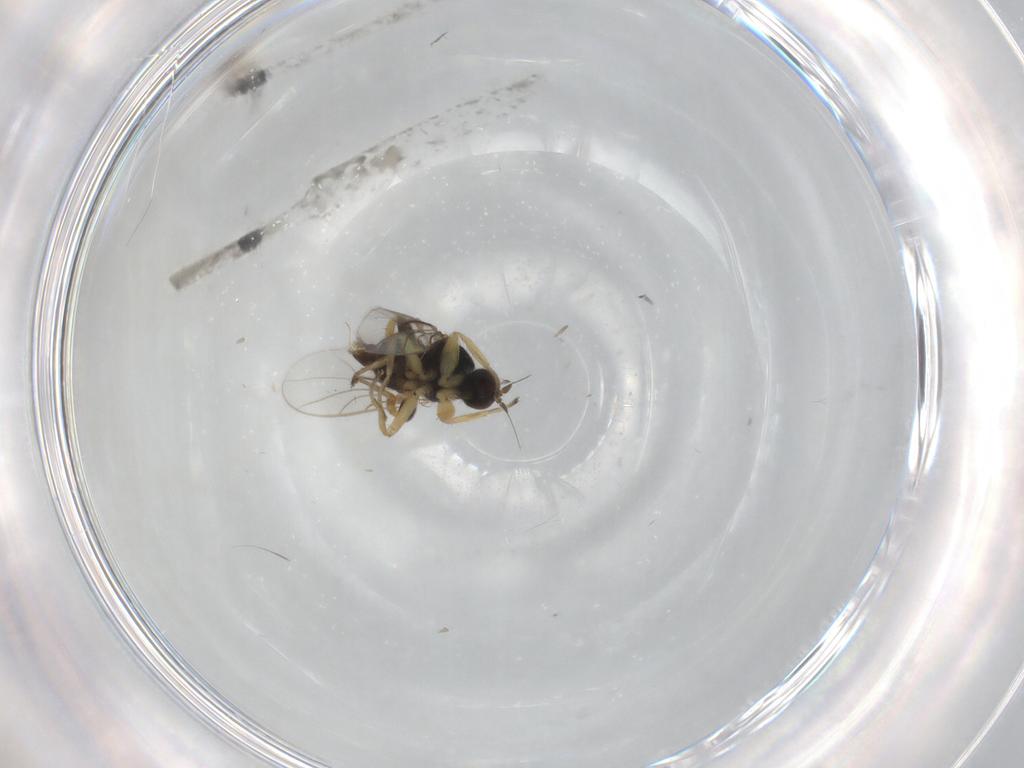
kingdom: Animalia
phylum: Arthropoda
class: Insecta
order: Diptera
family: Hybotidae
